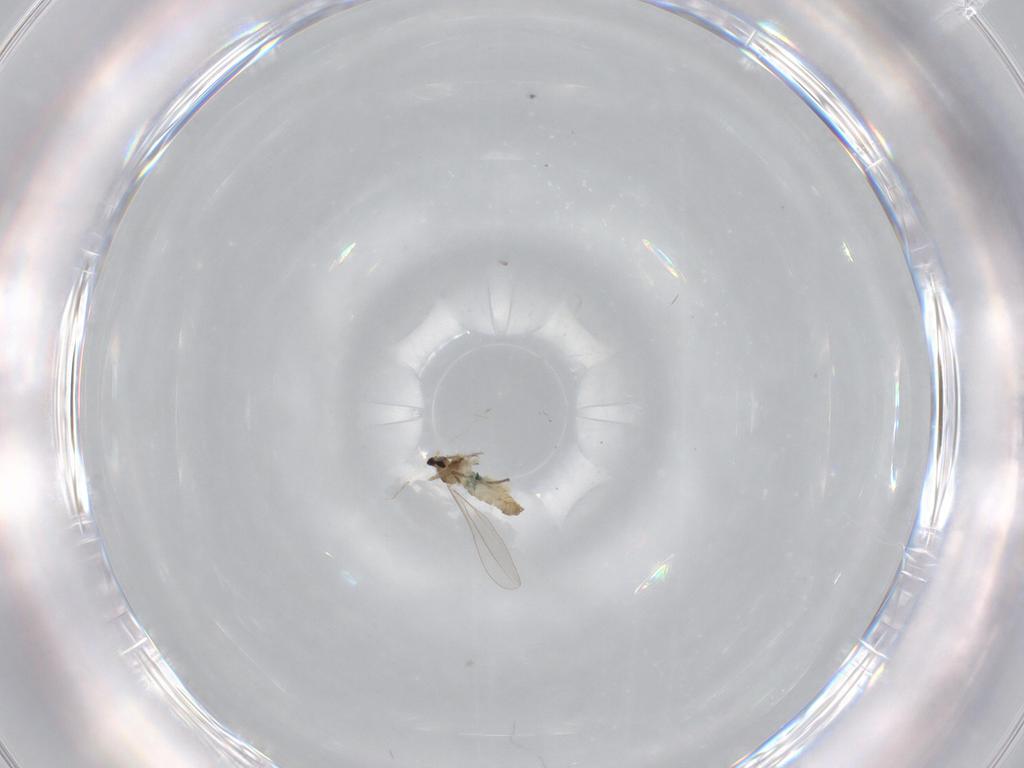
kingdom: Animalia
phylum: Arthropoda
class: Insecta
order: Diptera
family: Cecidomyiidae
